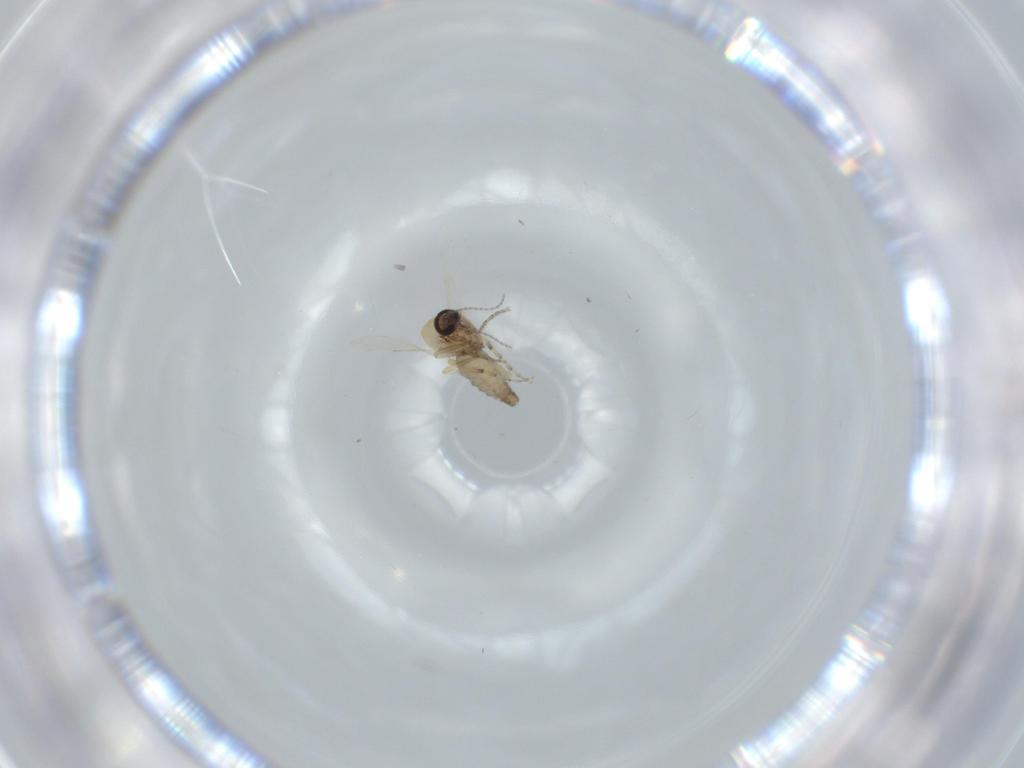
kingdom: Animalia
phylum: Arthropoda
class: Insecta
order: Diptera
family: Ceratopogonidae
